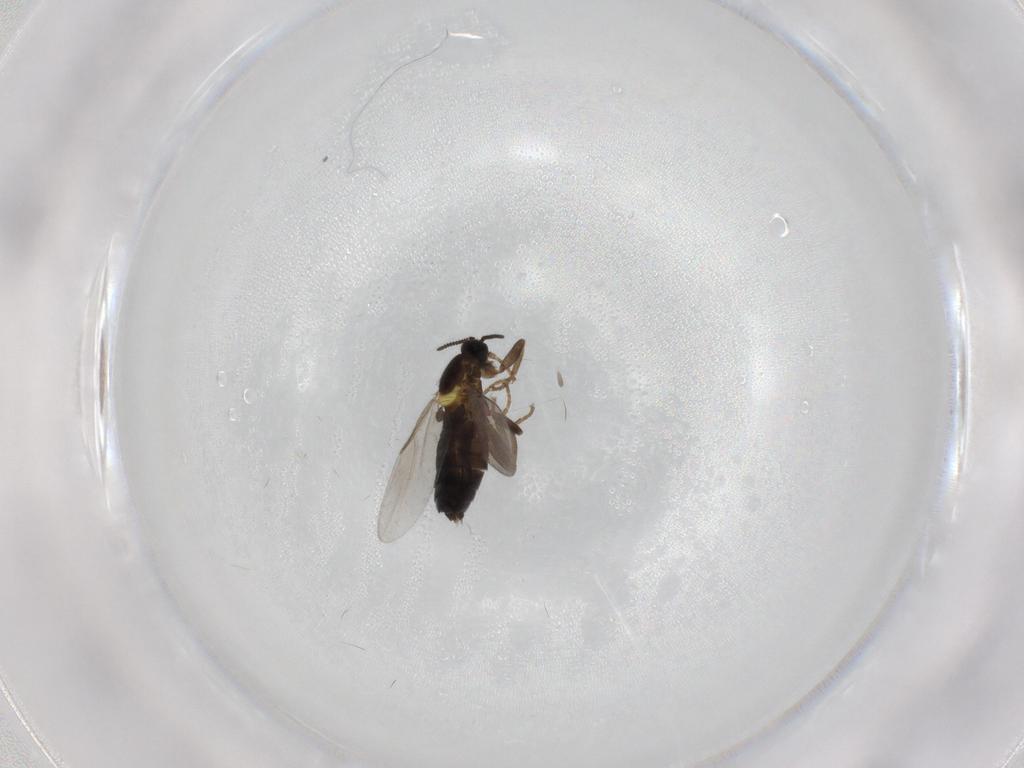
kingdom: Animalia
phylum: Arthropoda
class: Insecta
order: Diptera
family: Scatopsidae
